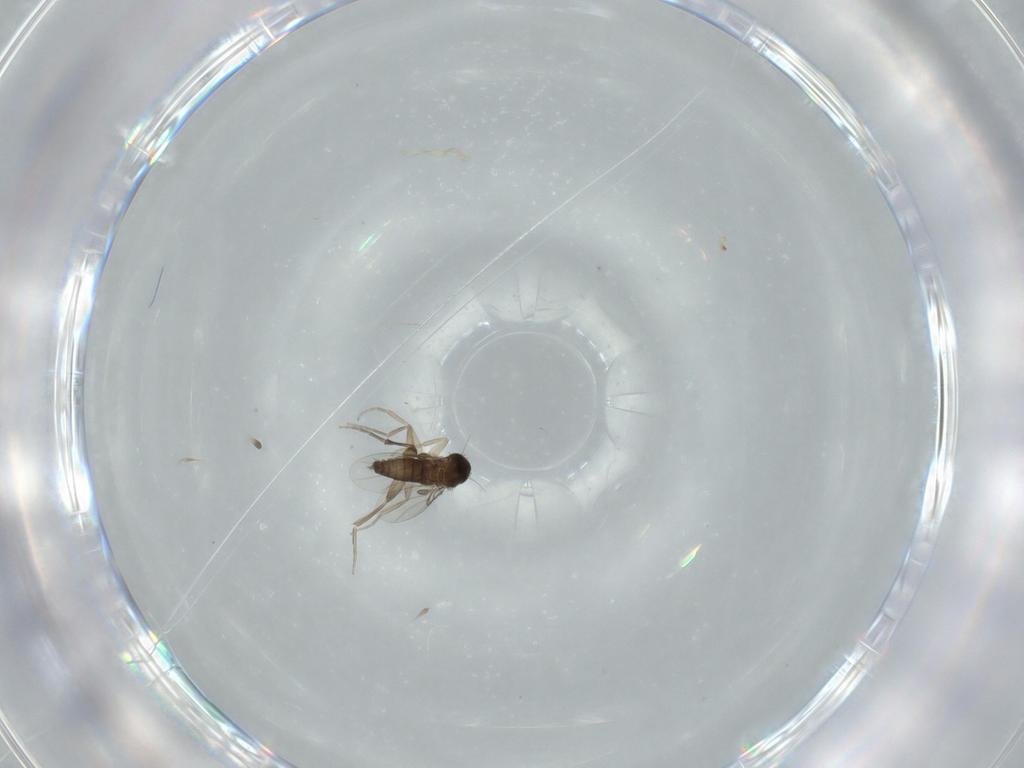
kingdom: Animalia
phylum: Arthropoda
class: Insecta
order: Diptera
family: Phoridae
